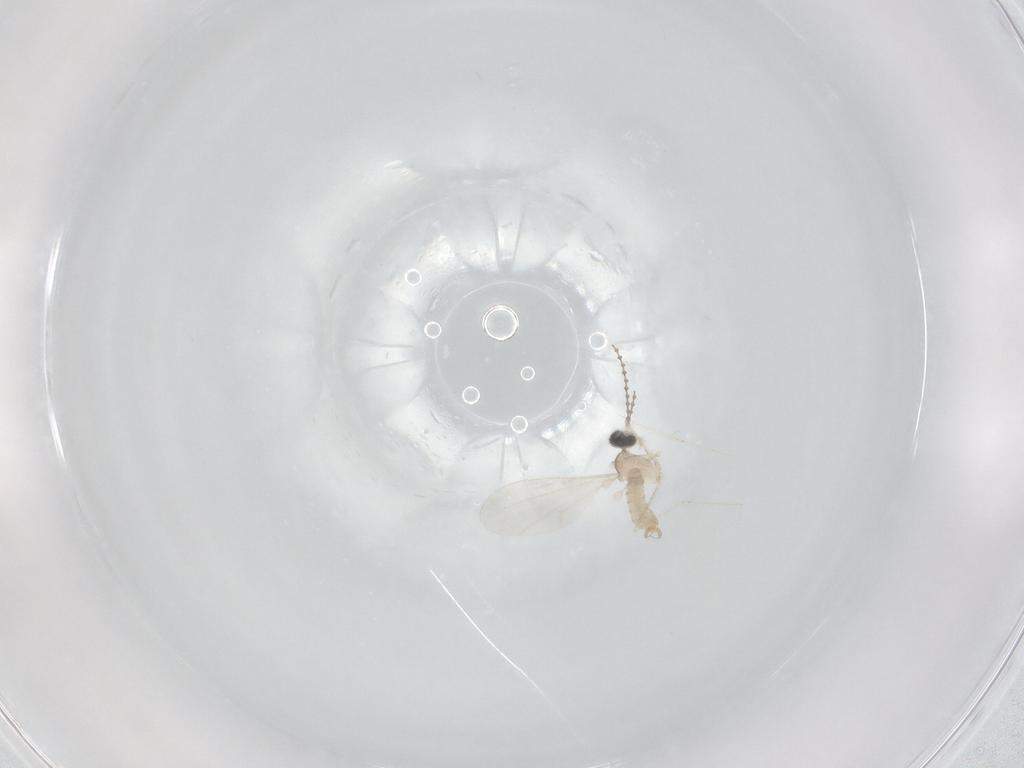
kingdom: Animalia
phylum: Arthropoda
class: Insecta
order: Diptera
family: Cecidomyiidae
